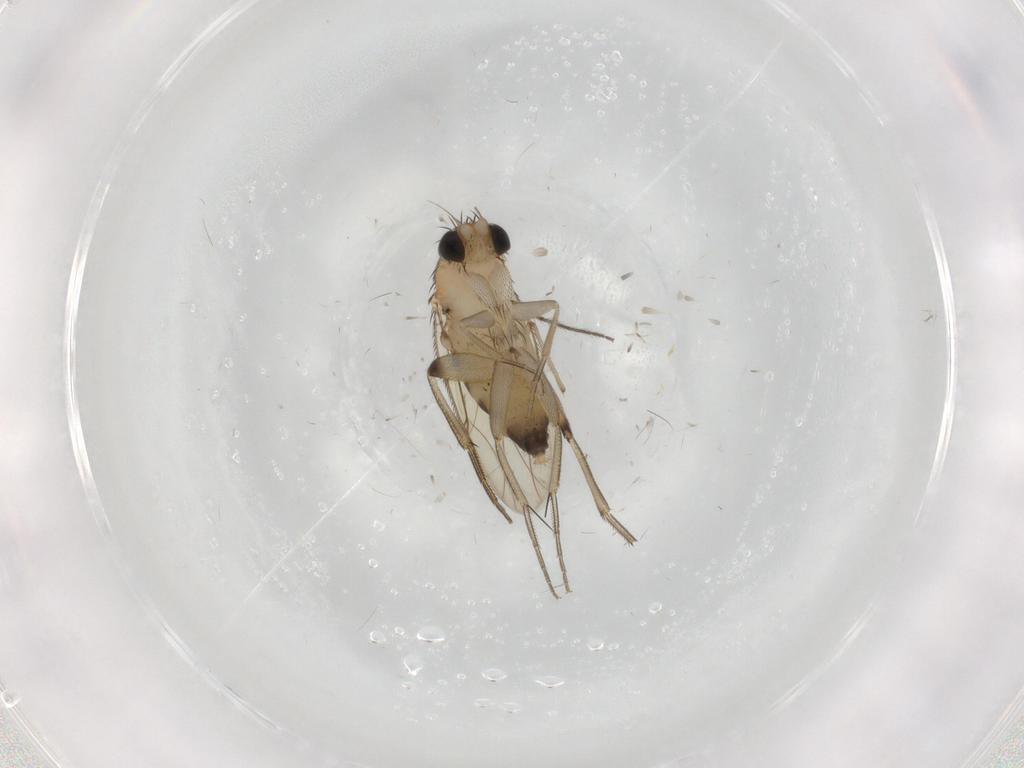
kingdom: Animalia
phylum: Arthropoda
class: Insecta
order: Diptera
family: Phoridae
